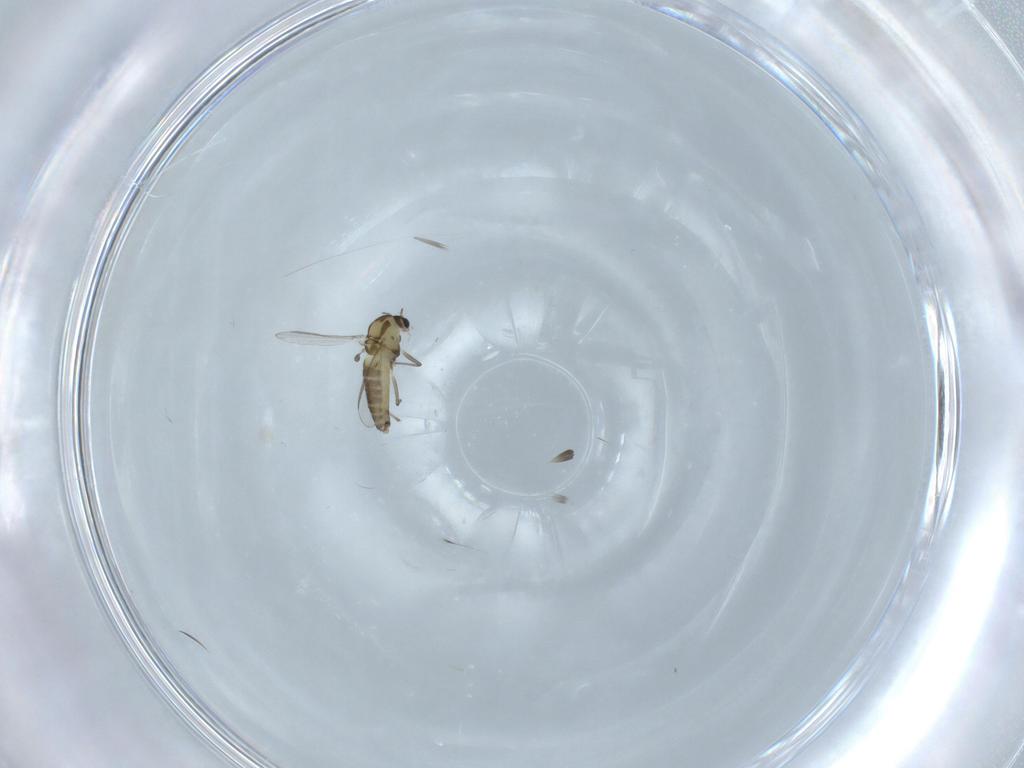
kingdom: Animalia
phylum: Arthropoda
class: Insecta
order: Diptera
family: Chironomidae
